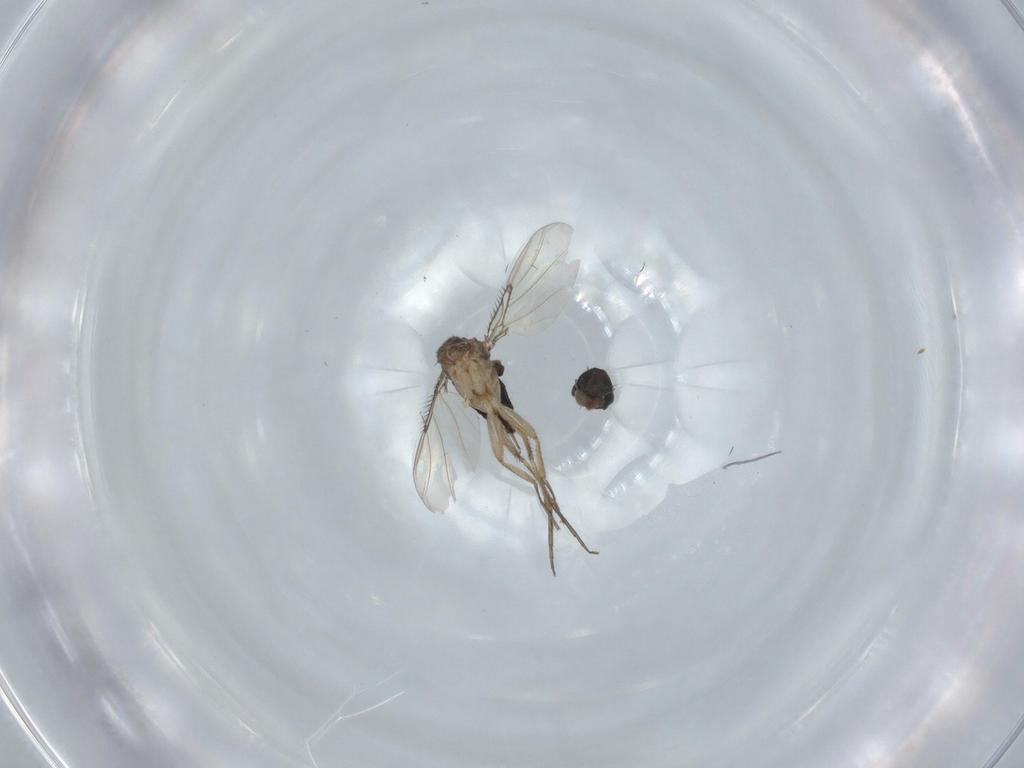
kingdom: Animalia
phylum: Arthropoda
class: Insecta
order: Diptera
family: Phoridae
